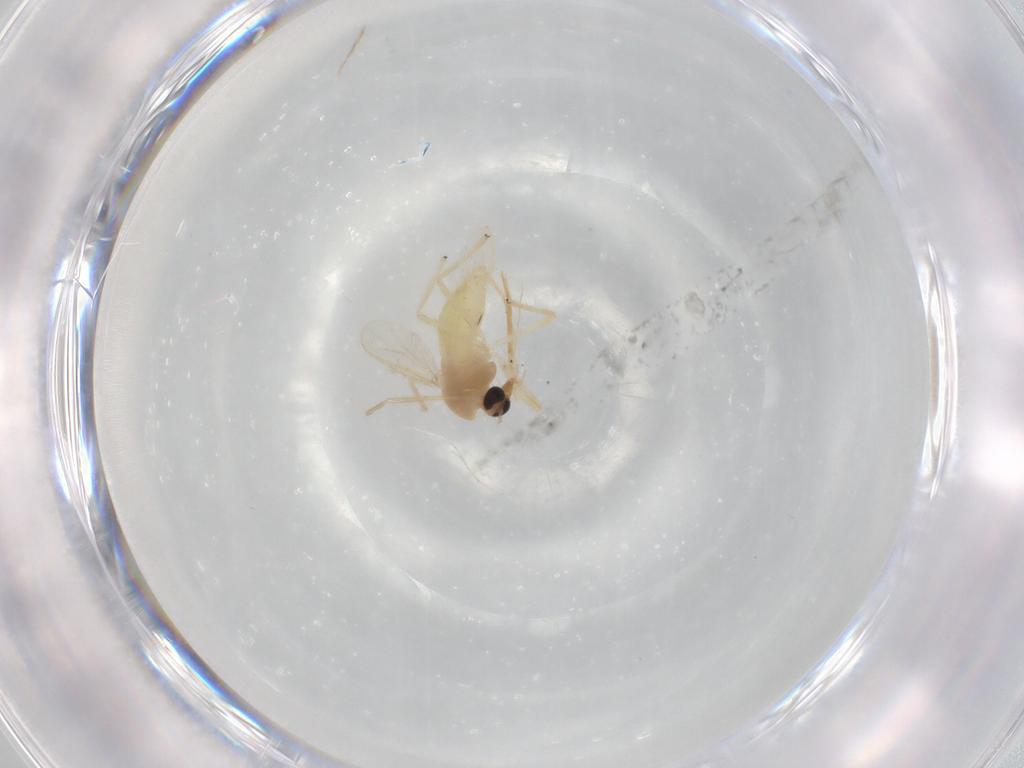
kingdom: Animalia
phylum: Arthropoda
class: Insecta
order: Diptera
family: Chironomidae
